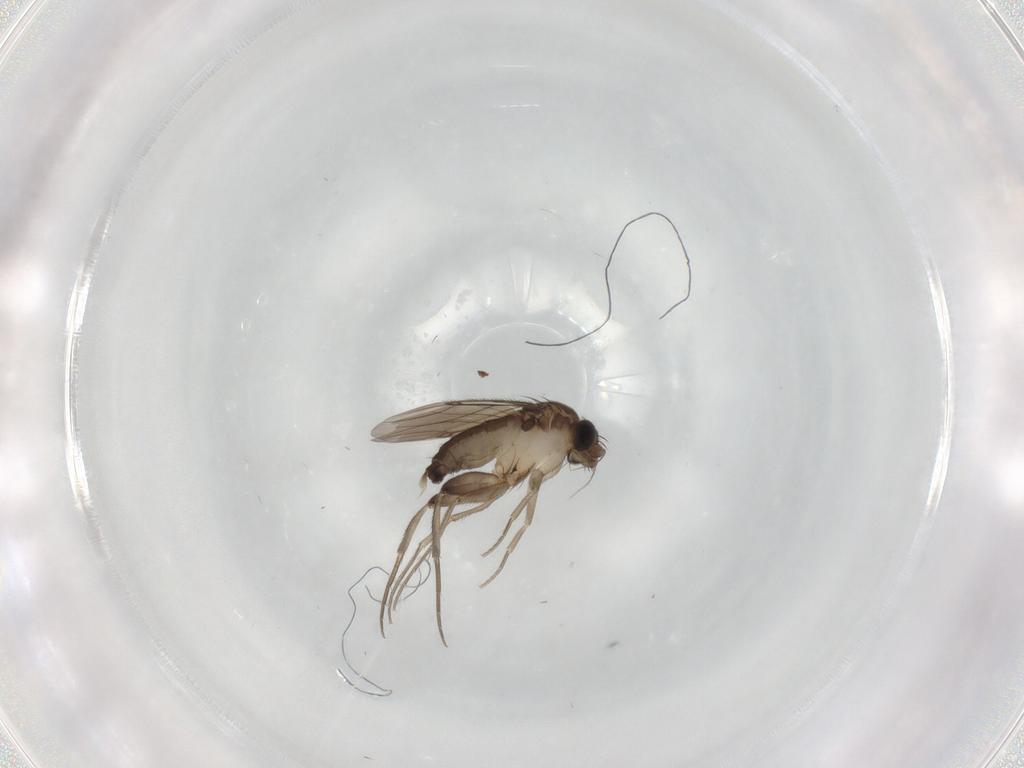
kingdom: Animalia
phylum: Arthropoda
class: Insecta
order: Diptera
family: Phoridae
